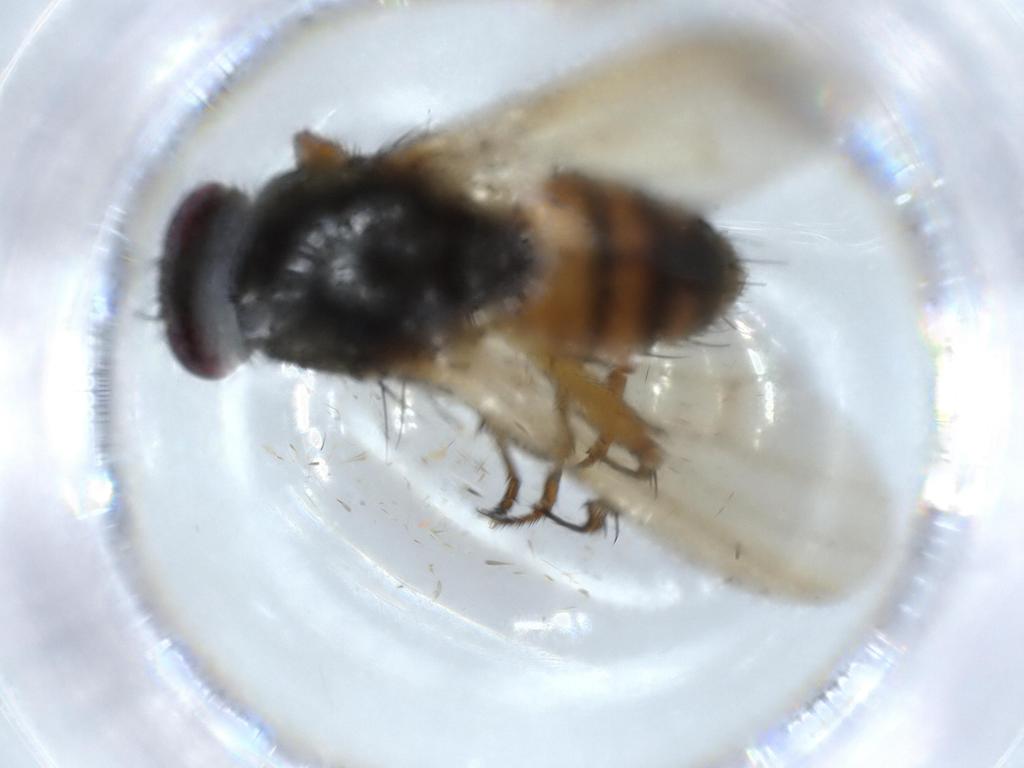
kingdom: Animalia
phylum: Arthropoda
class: Insecta
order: Diptera
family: Muscidae
